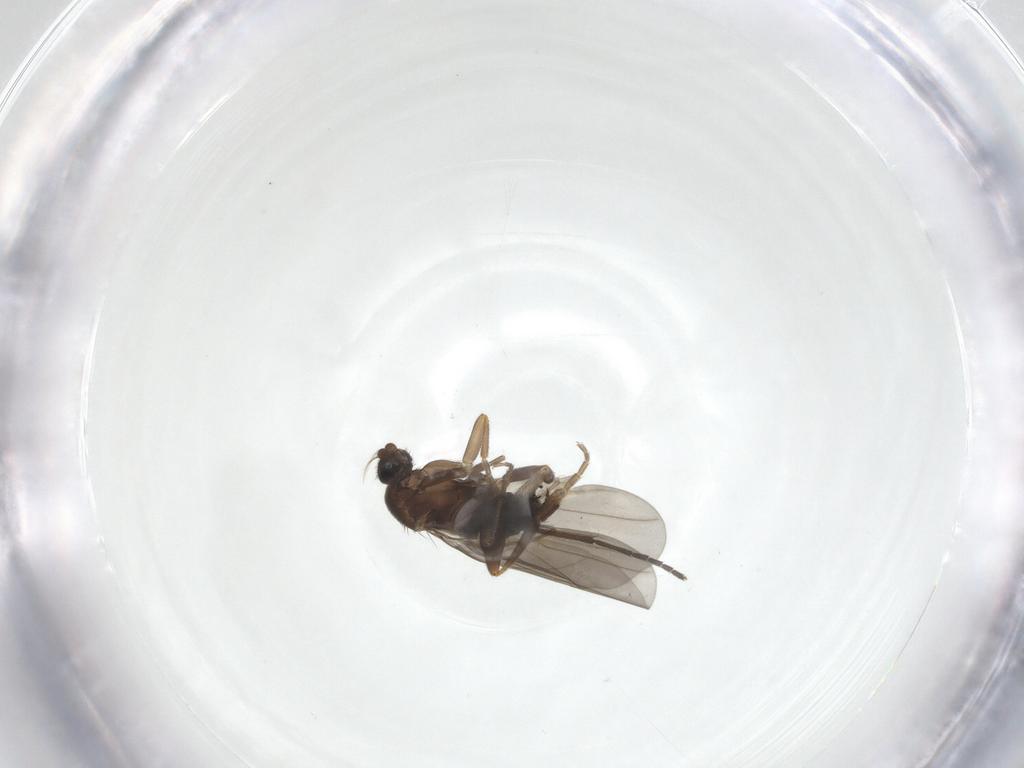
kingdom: Animalia
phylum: Arthropoda
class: Insecta
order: Diptera
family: Sciaridae
